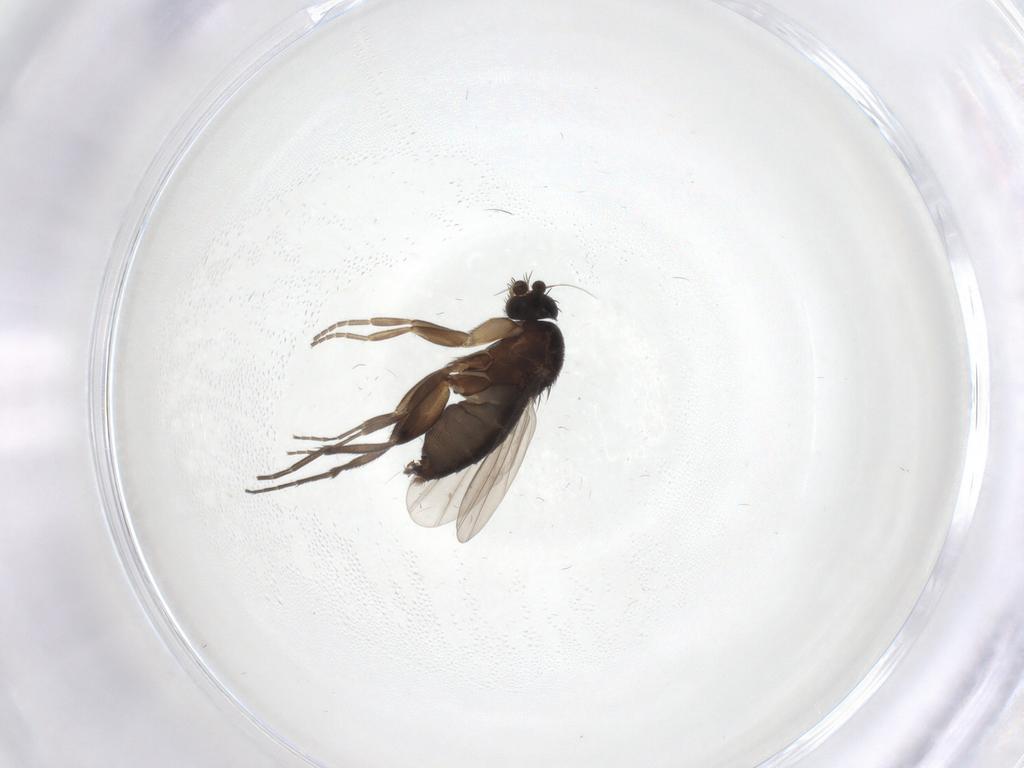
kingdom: Animalia
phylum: Arthropoda
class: Insecta
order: Diptera
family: Phoridae
